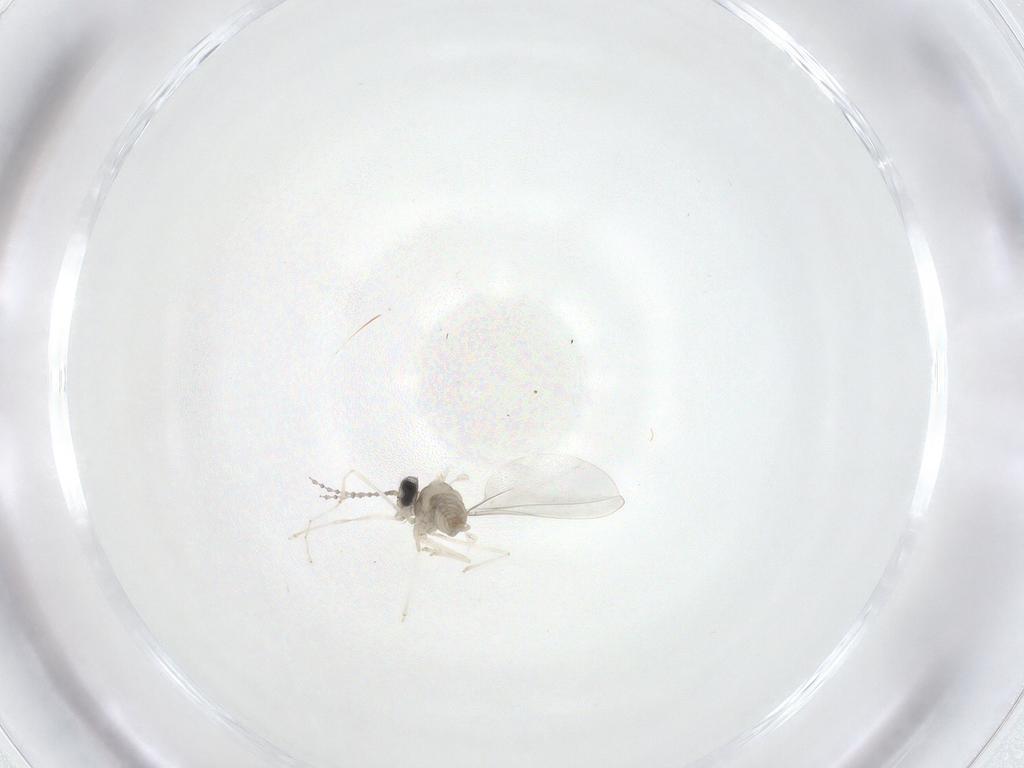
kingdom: Animalia
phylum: Arthropoda
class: Insecta
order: Diptera
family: Cecidomyiidae
